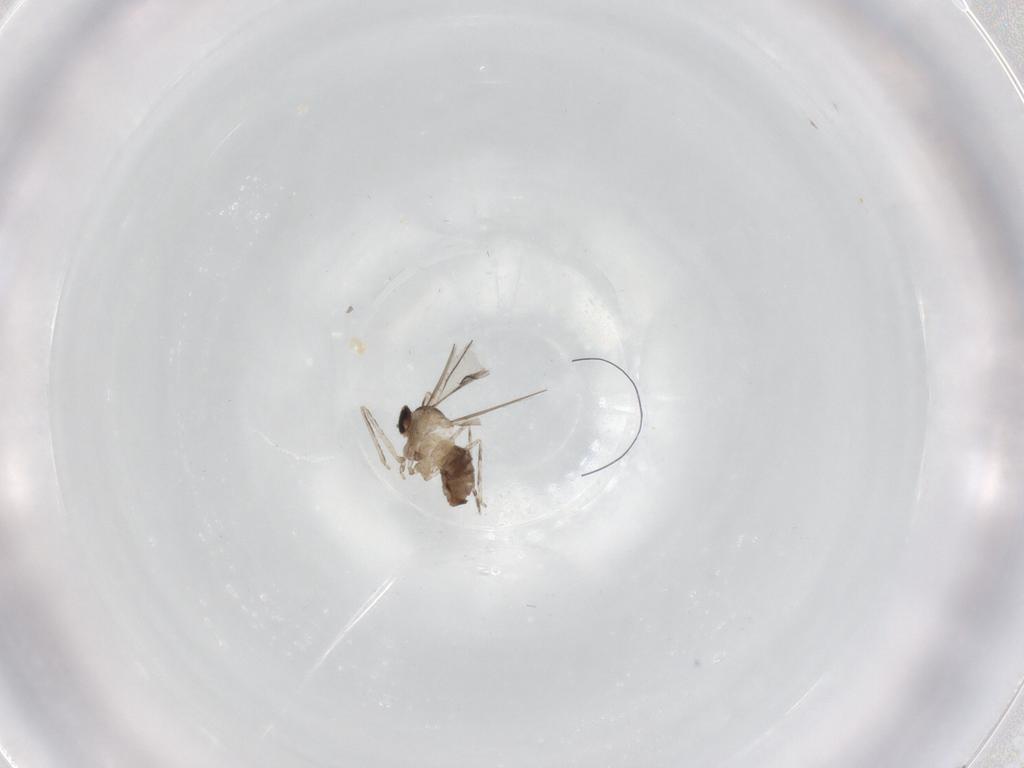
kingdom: Animalia
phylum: Arthropoda
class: Insecta
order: Diptera
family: Cecidomyiidae
